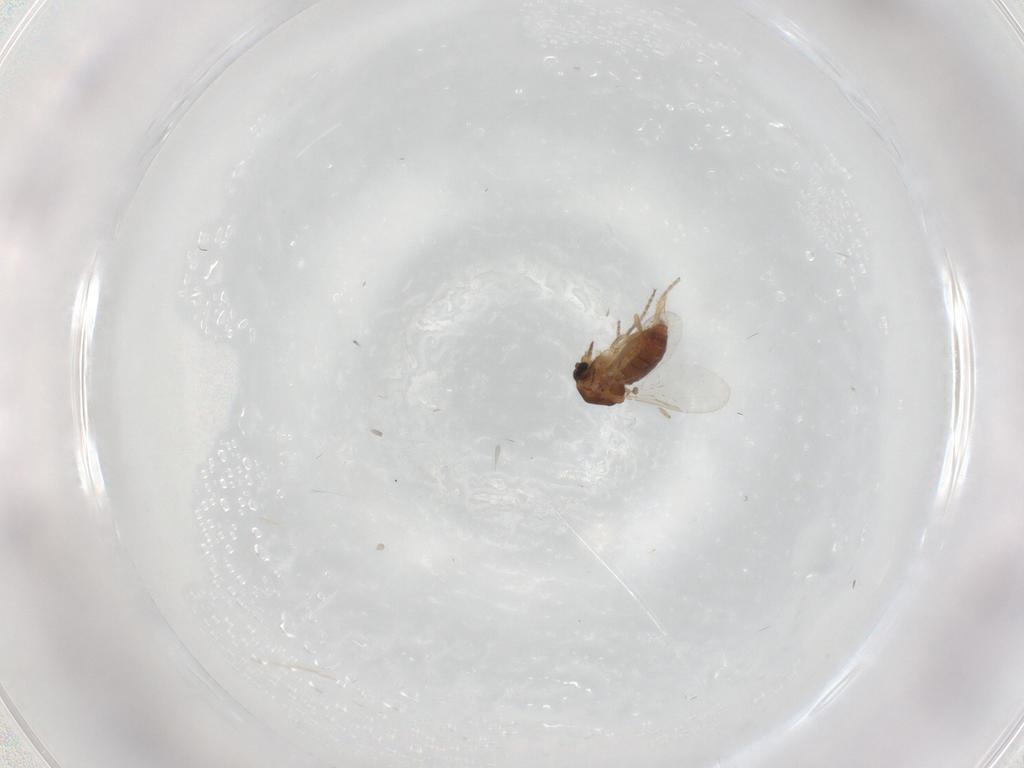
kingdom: Animalia
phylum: Arthropoda
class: Insecta
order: Diptera
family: Ceratopogonidae
